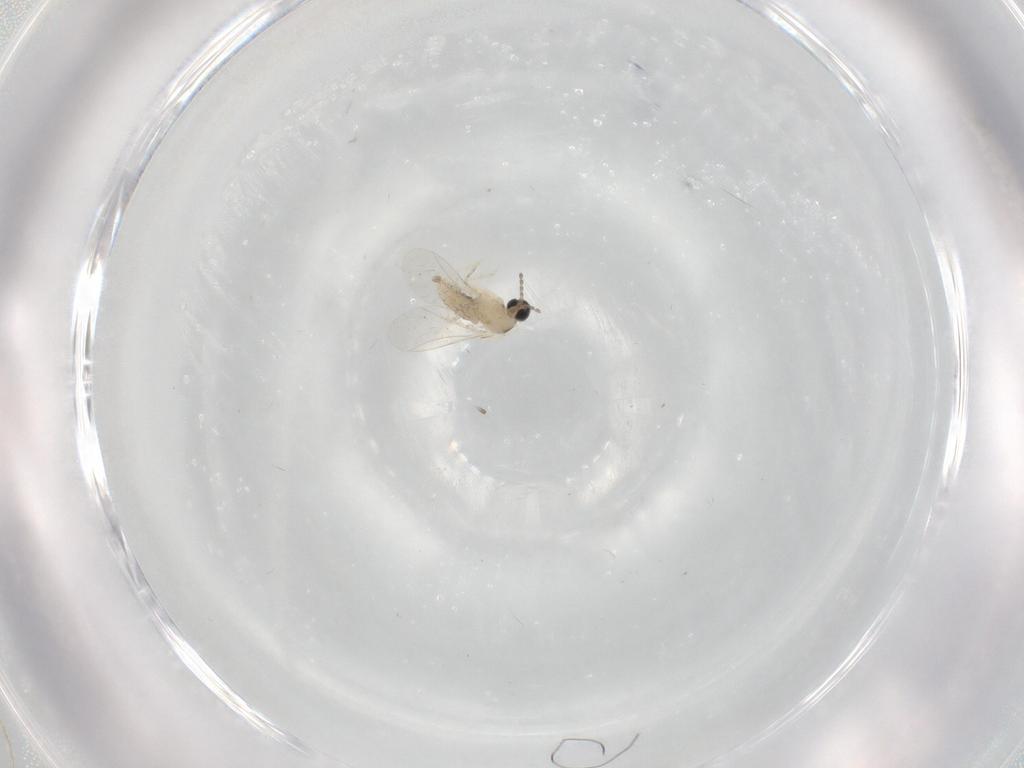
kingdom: Animalia
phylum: Arthropoda
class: Insecta
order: Diptera
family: Cecidomyiidae
